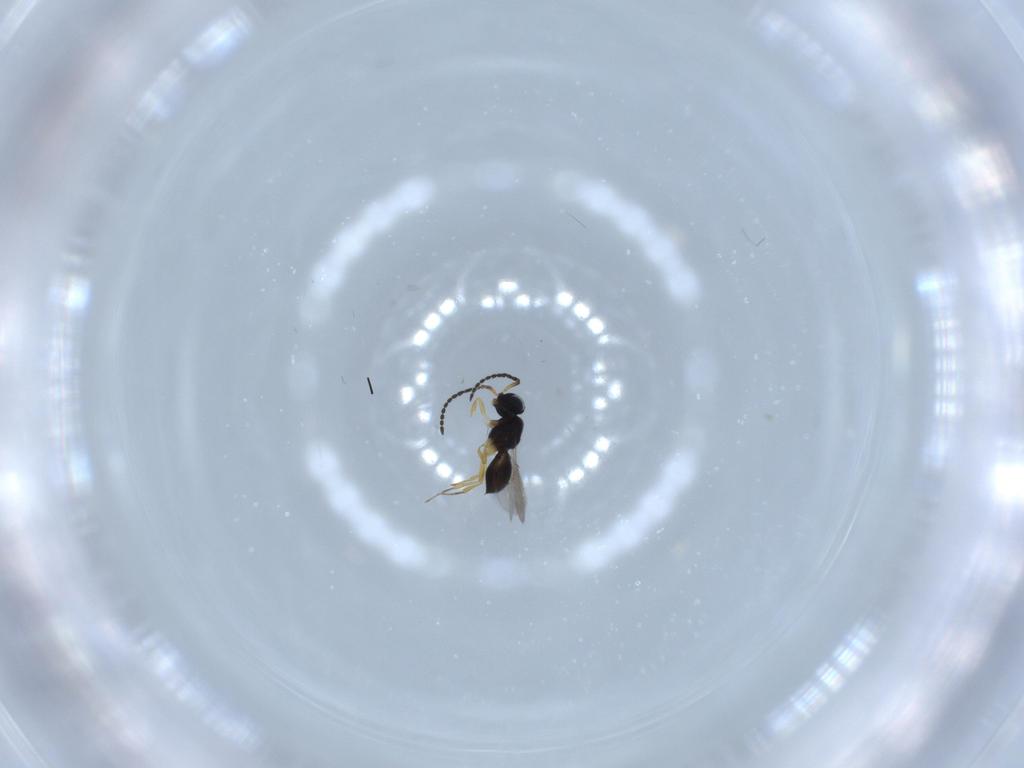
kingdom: Animalia
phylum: Arthropoda
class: Insecta
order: Hymenoptera
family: Scelionidae
